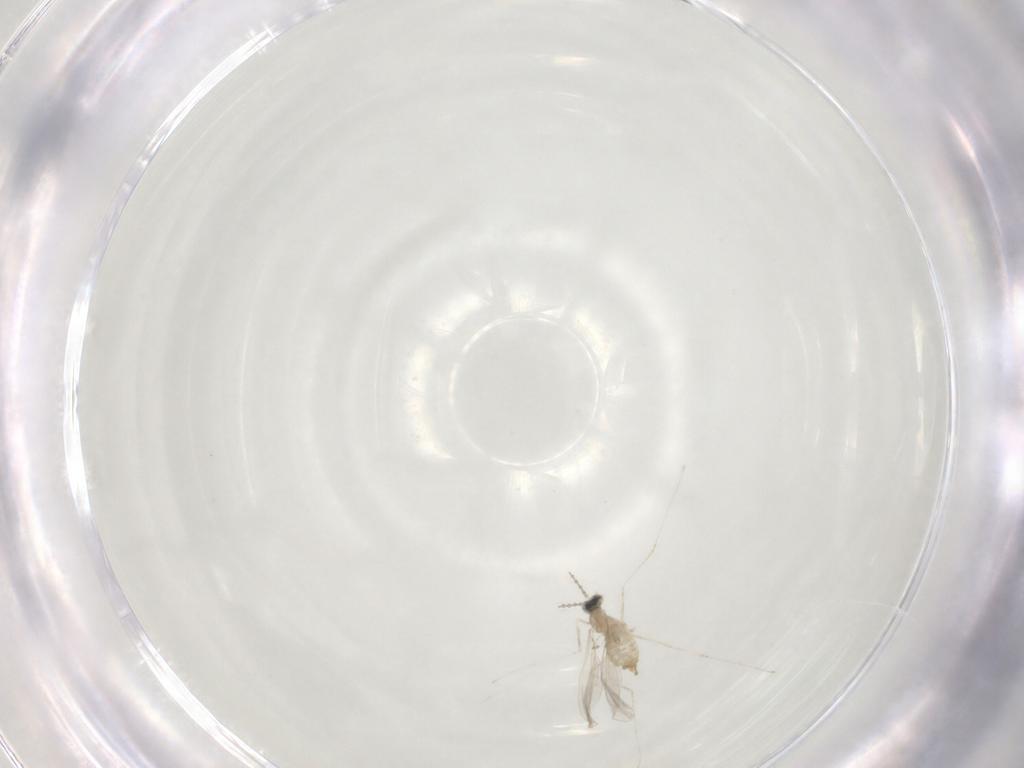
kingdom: Animalia
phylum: Arthropoda
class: Insecta
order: Diptera
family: Cecidomyiidae
